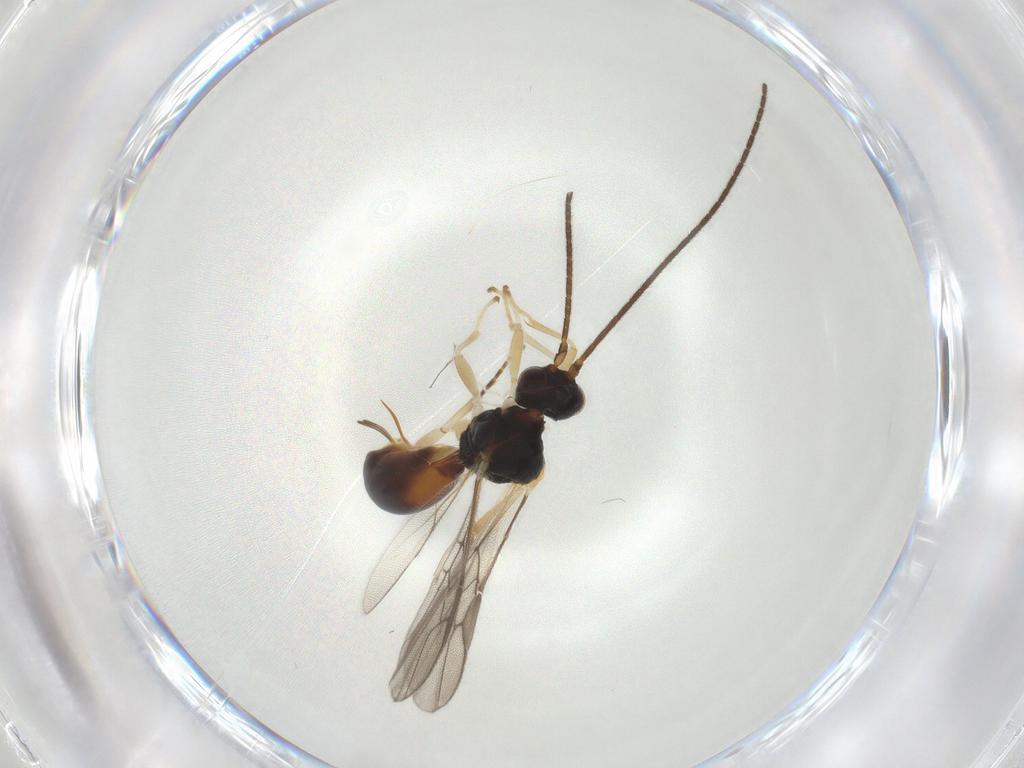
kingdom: Animalia
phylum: Arthropoda
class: Insecta
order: Hymenoptera
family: Braconidae
